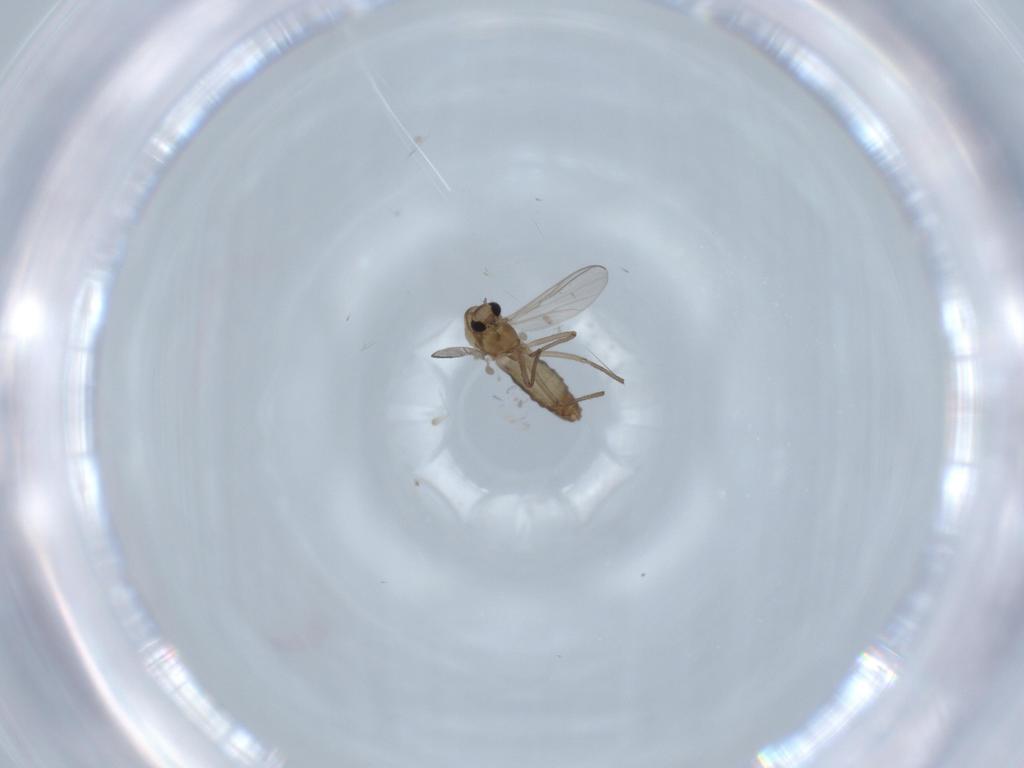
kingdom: Animalia
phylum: Arthropoda
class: Insecta
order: Diptera
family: Chironomidae
